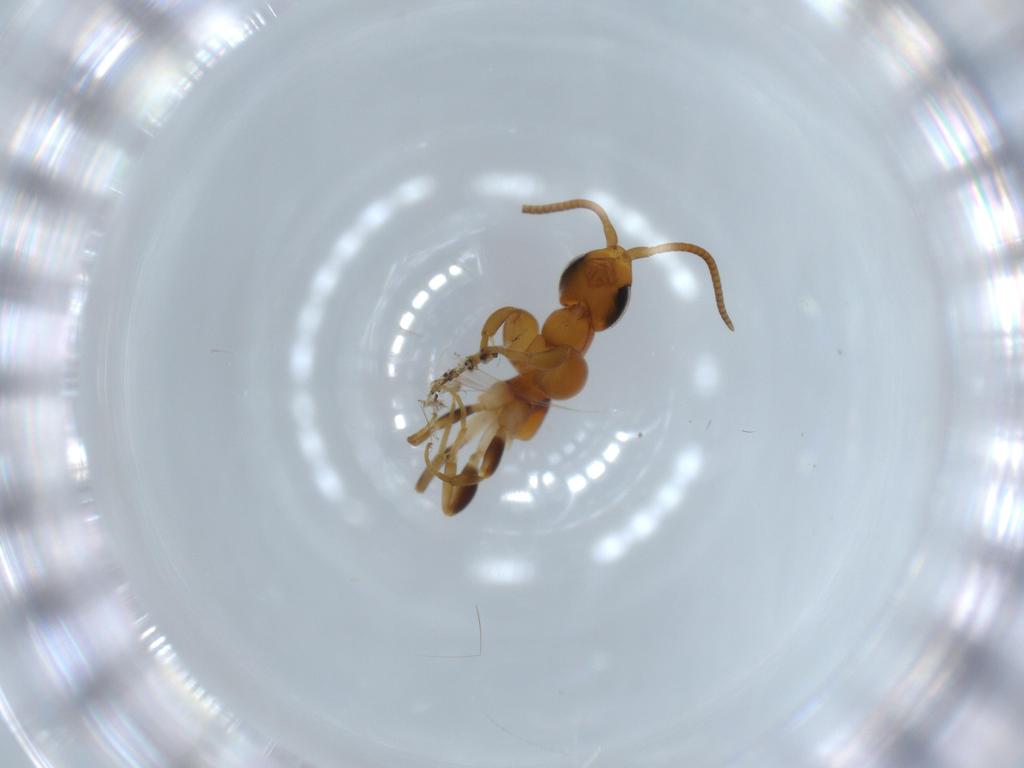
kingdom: Animalia
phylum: Arthropoda
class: Insecta
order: Hymenoptera
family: Sclerogibbidae
